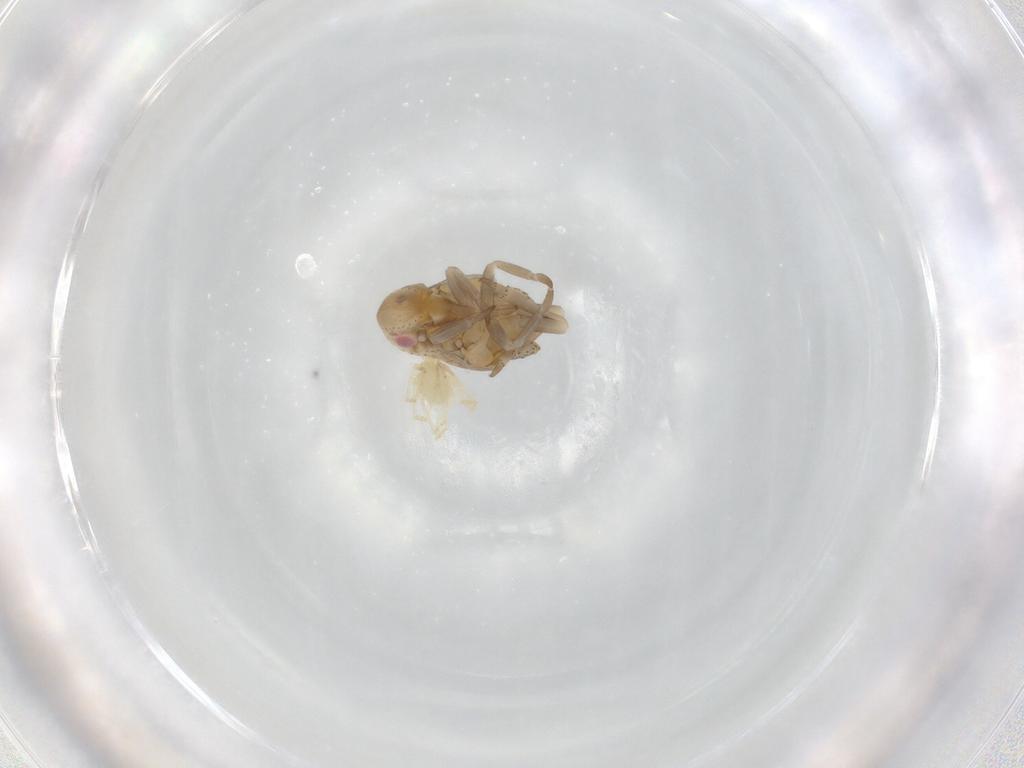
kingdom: Animalia
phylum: Arthropoda
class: Arachnida
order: Trombidiformes
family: Erythraeidae
